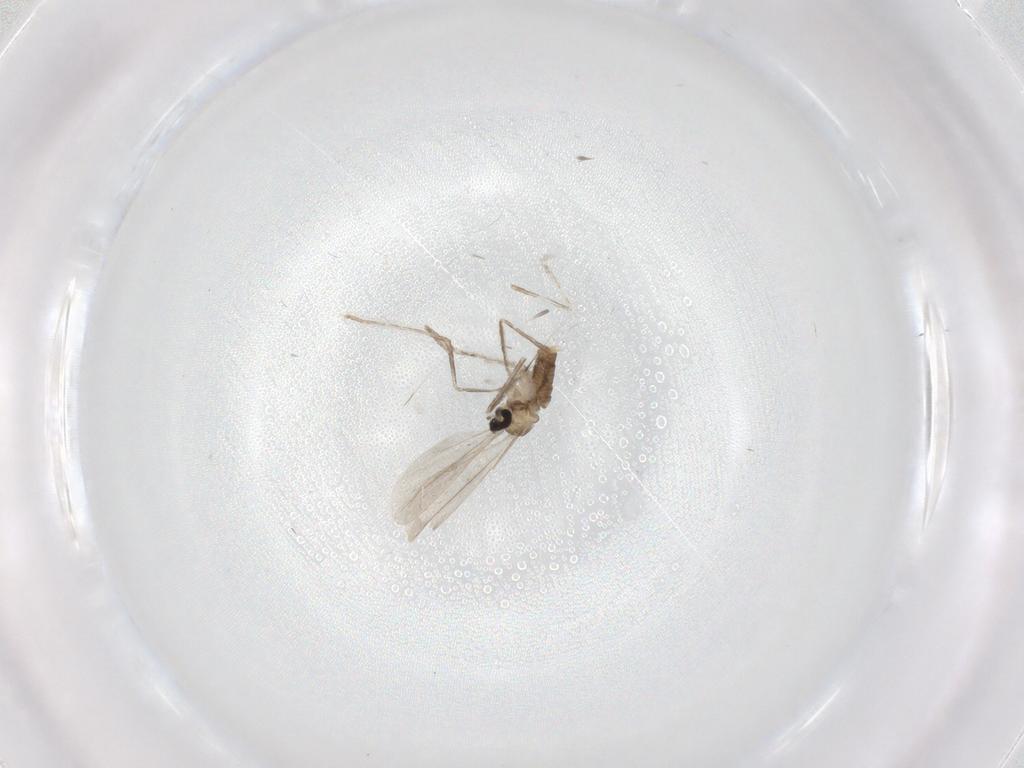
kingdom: Animalia
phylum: Arthropoda
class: Insecta
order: Diptera
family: Cecidomyiidae
